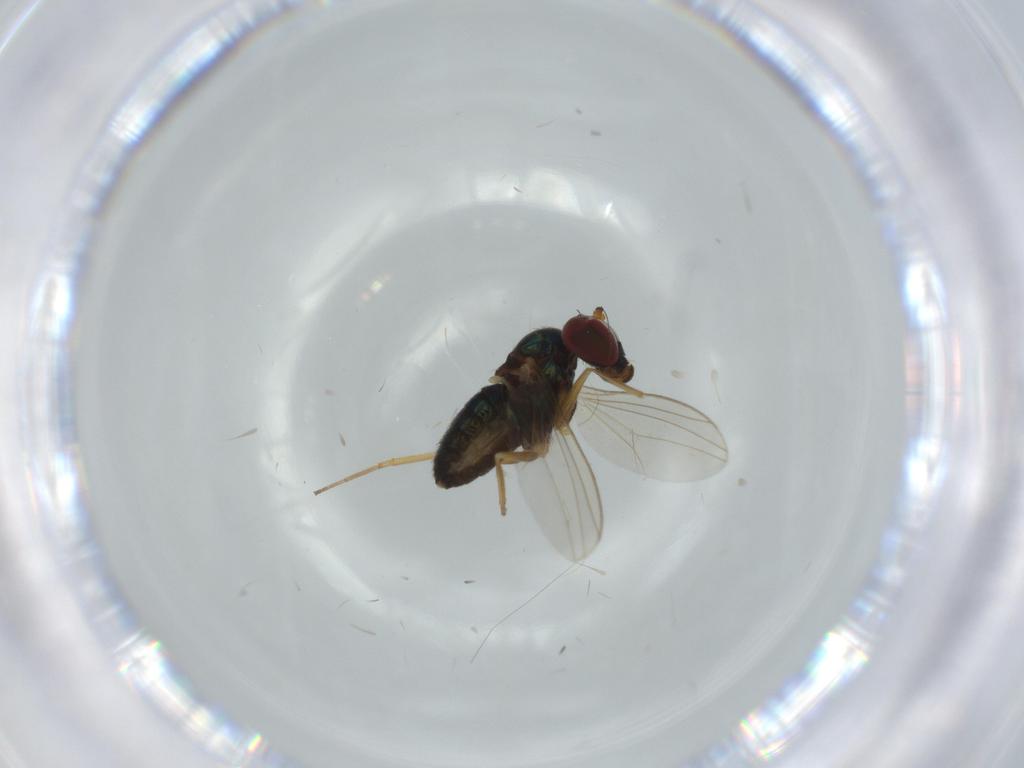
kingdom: Animalia
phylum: Arthropoda
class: Insecta
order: Diptera
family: Dolichopodidae
